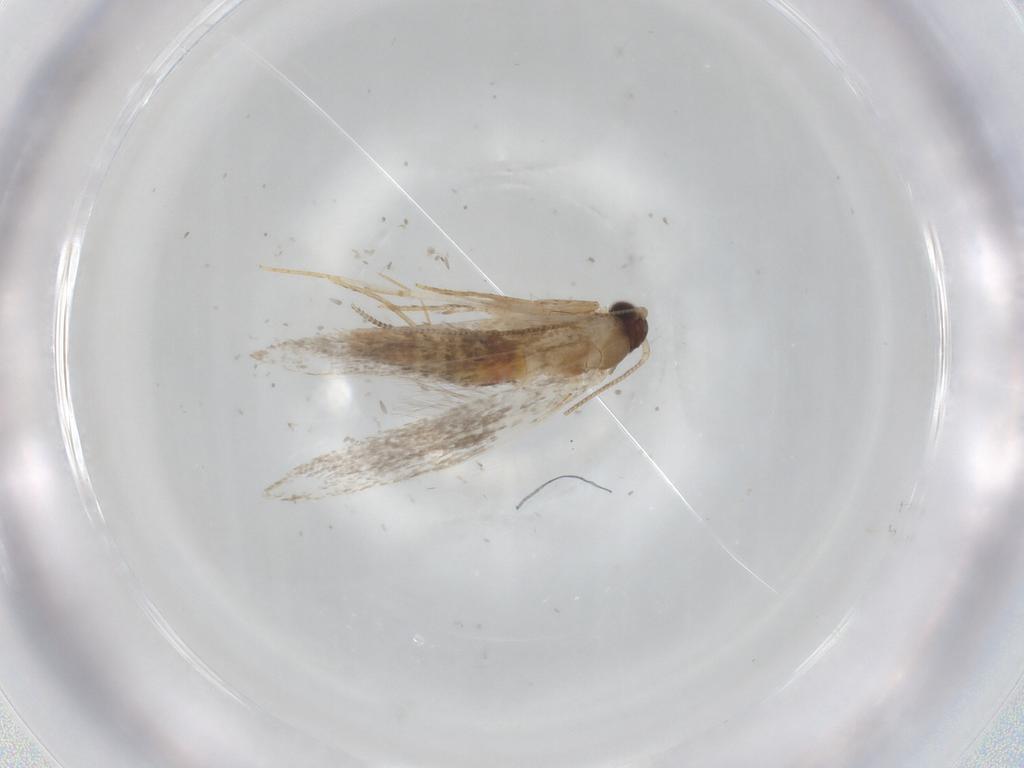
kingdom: Animalia
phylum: Arthropoda
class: Insecta
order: Lepidoptera
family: Tineidae
